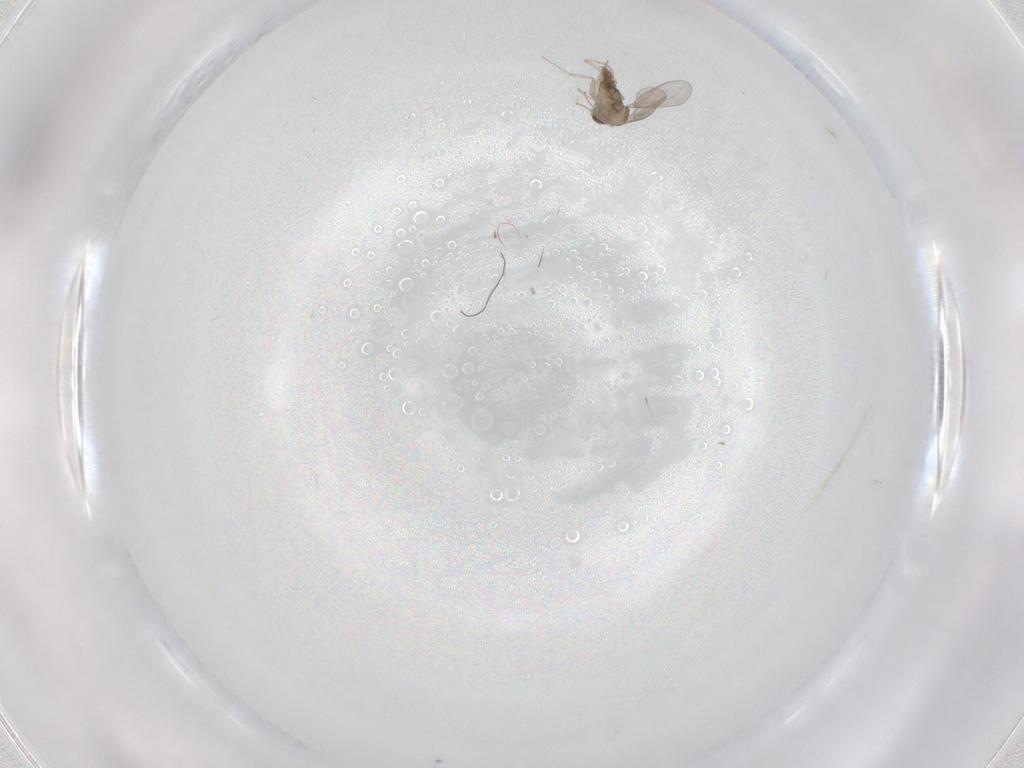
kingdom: Animalia
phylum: Arthropoda
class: Insecta
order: Diptera
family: Cecidomyiidae
